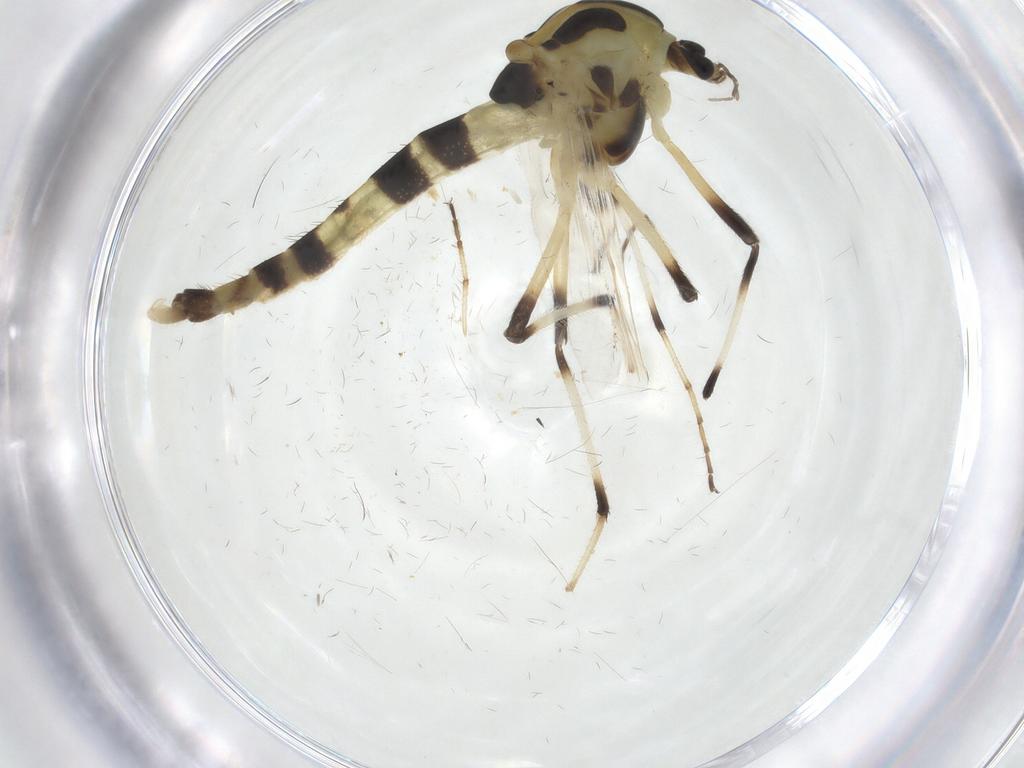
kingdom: Animalia
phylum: Arthropoda
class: Insecta
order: Diptera
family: Chironomidae
